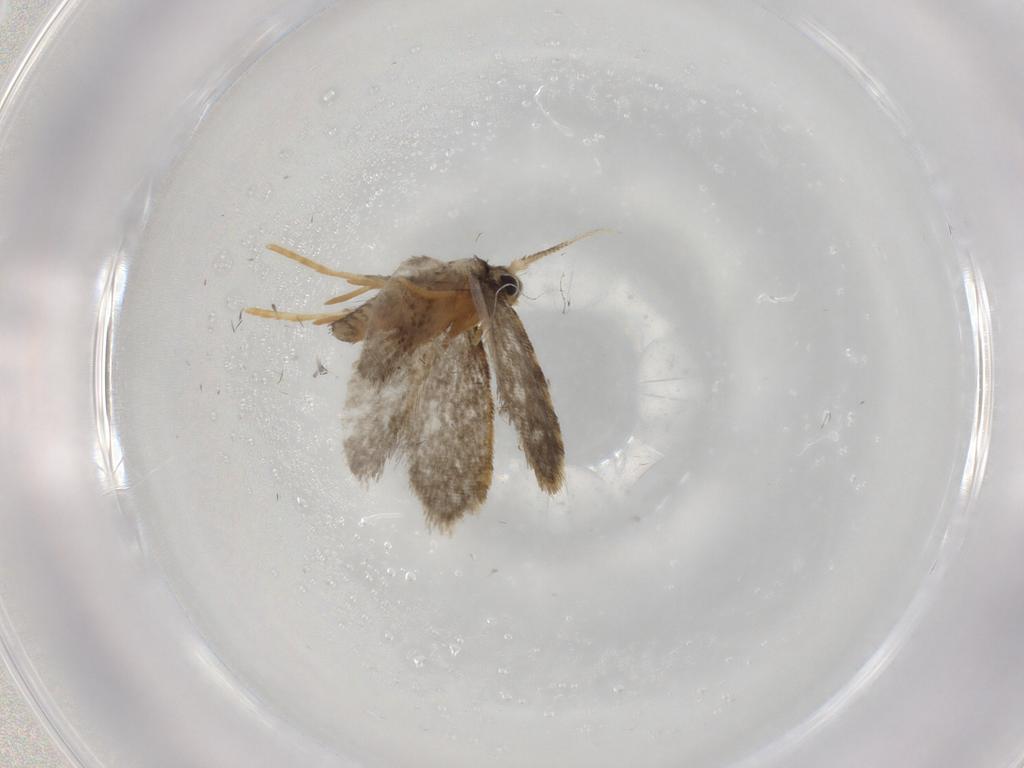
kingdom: Animalia
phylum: Arthropoda
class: Insecta
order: Lepidoptera
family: Psychidae
